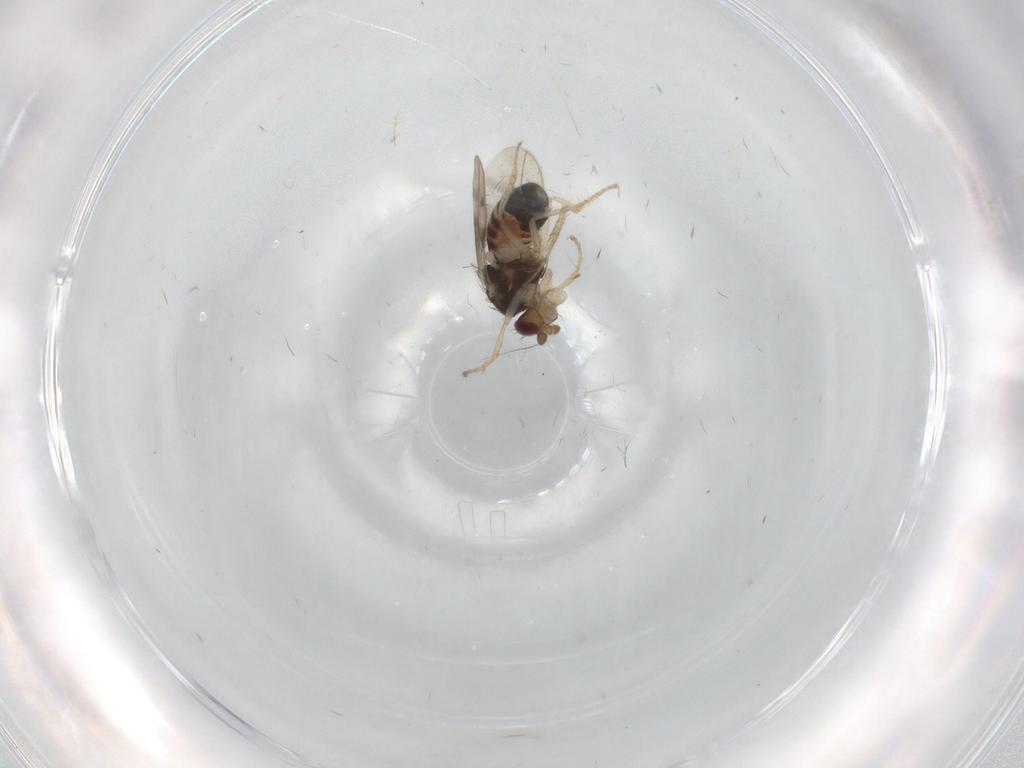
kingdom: Animalia
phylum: Arthropoda
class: Insecta
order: Diptera
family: Sphaeroceridae
